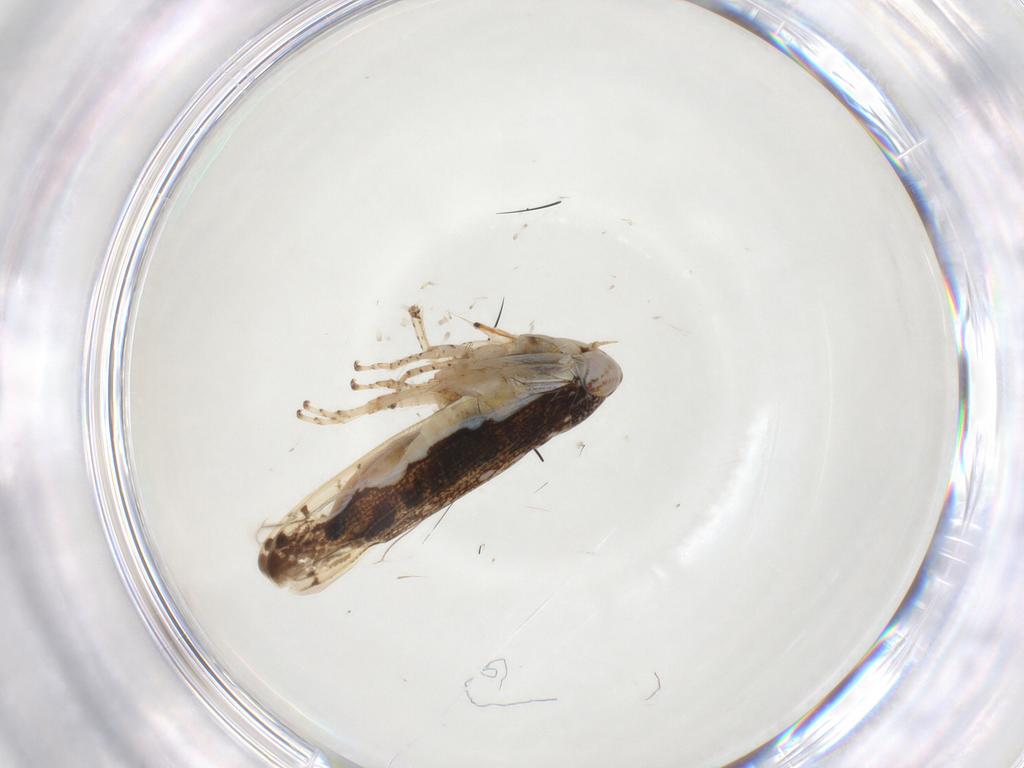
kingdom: Animalia
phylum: Arthropoda
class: Insecta
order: Hemiptera
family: Cicadellidae
